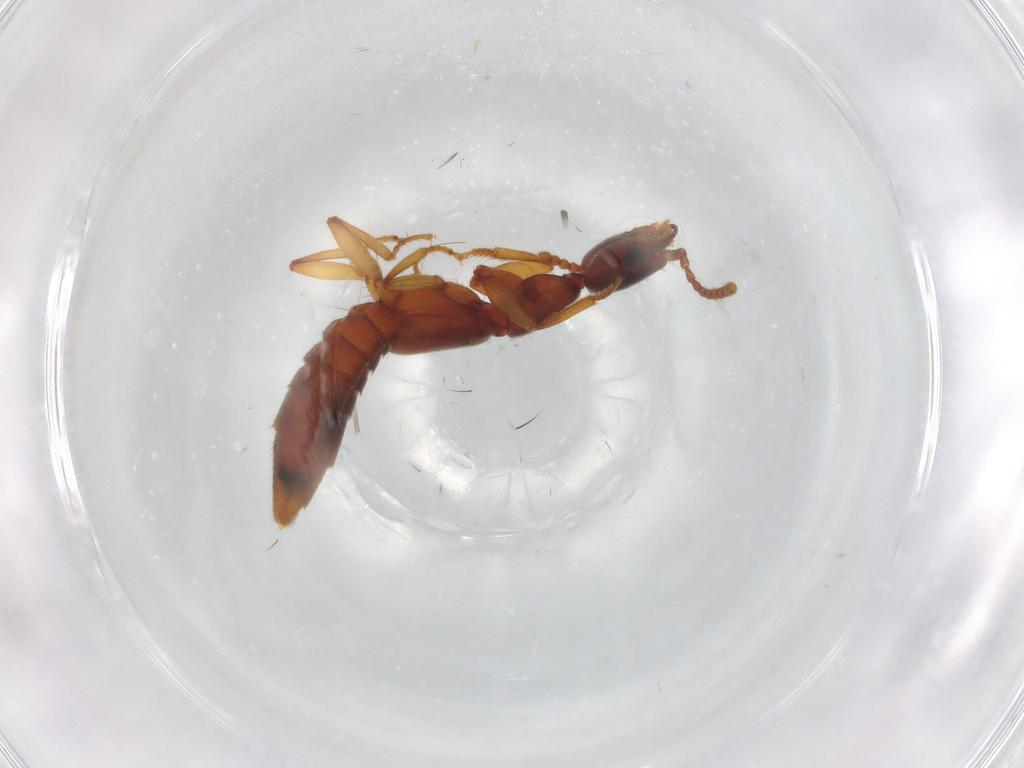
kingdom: Animalia
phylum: Arthropoda
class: Insecta
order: Coleoptera
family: Staphylinidae
